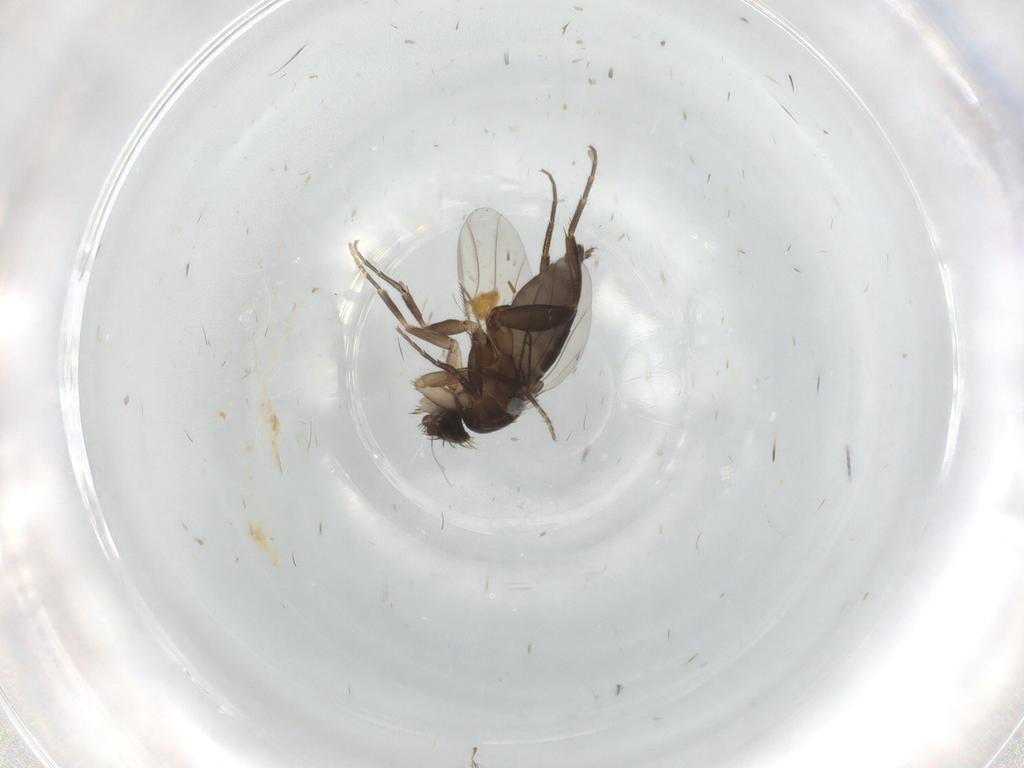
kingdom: Animalia
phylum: Arthropoda
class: Insecta
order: Diptera
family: Phoridae
